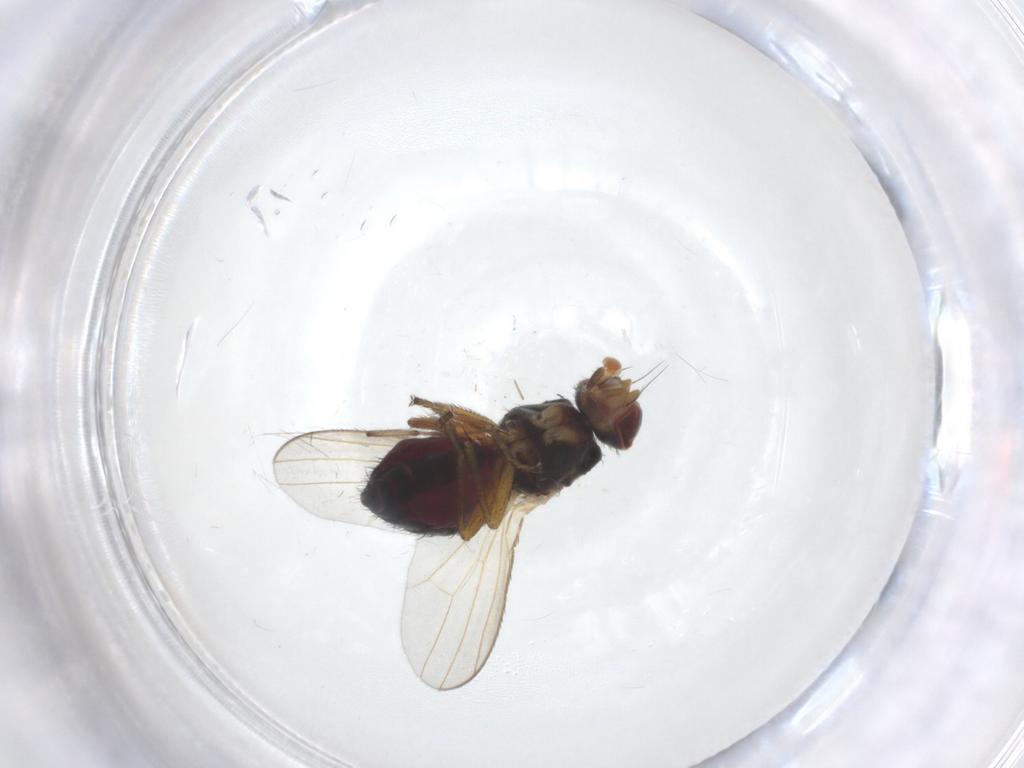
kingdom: Animalia
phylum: Arthropoda
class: Insecta
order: Diptera
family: Heleomyzidae
